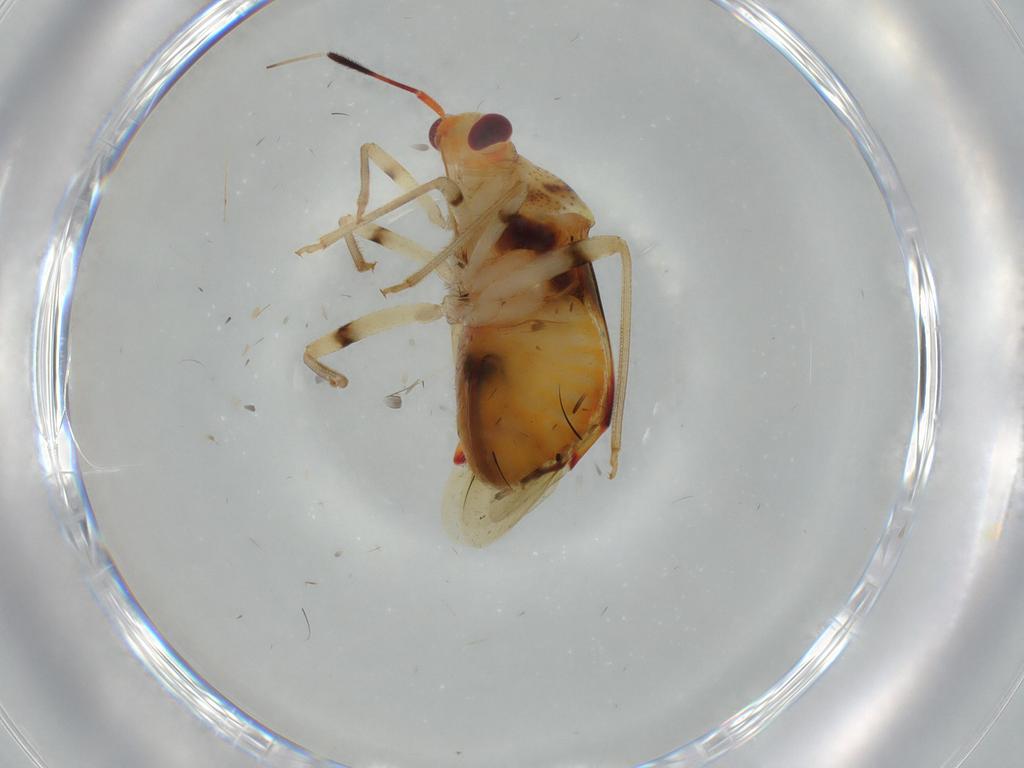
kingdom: Animalia
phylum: Arthropoda
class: Insecta
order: Hemiptera
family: Miridae
